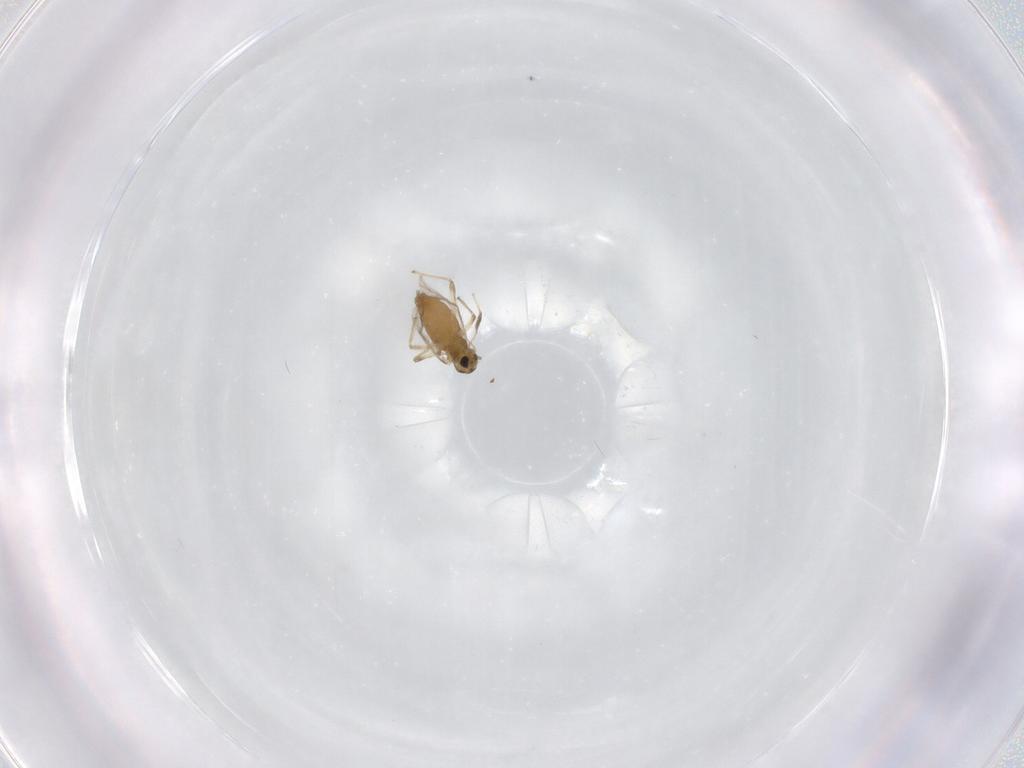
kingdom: Animalia
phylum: Arthropoda
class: Insecta
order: Diptera
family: Chironomidae
